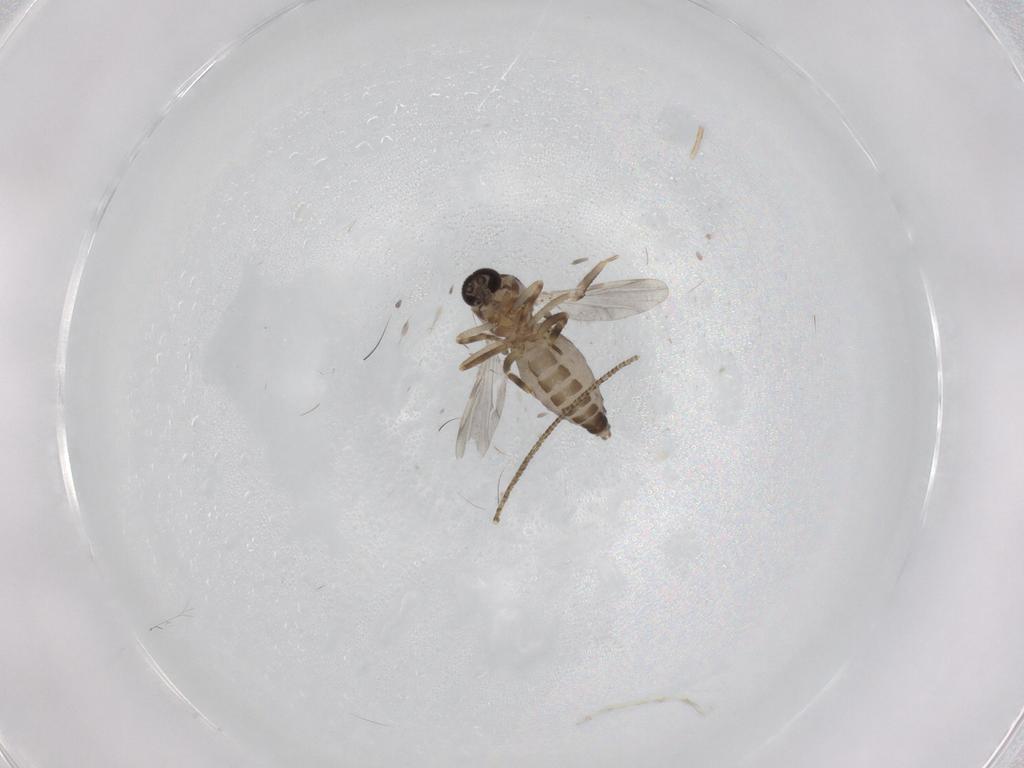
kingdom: Animalia
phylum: Arthropoda
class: Insecta
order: Diptera
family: Ceratopogonidae
